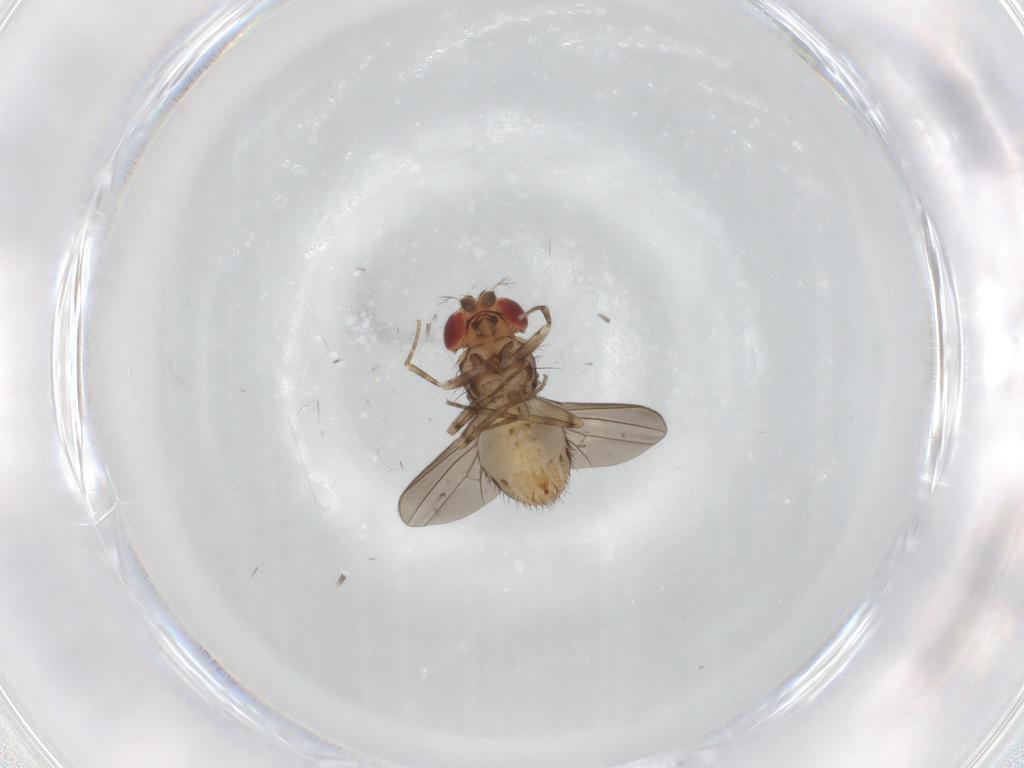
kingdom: Animalia
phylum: Arthropoda
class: Insecta
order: Diptera
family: Drosophilidae
